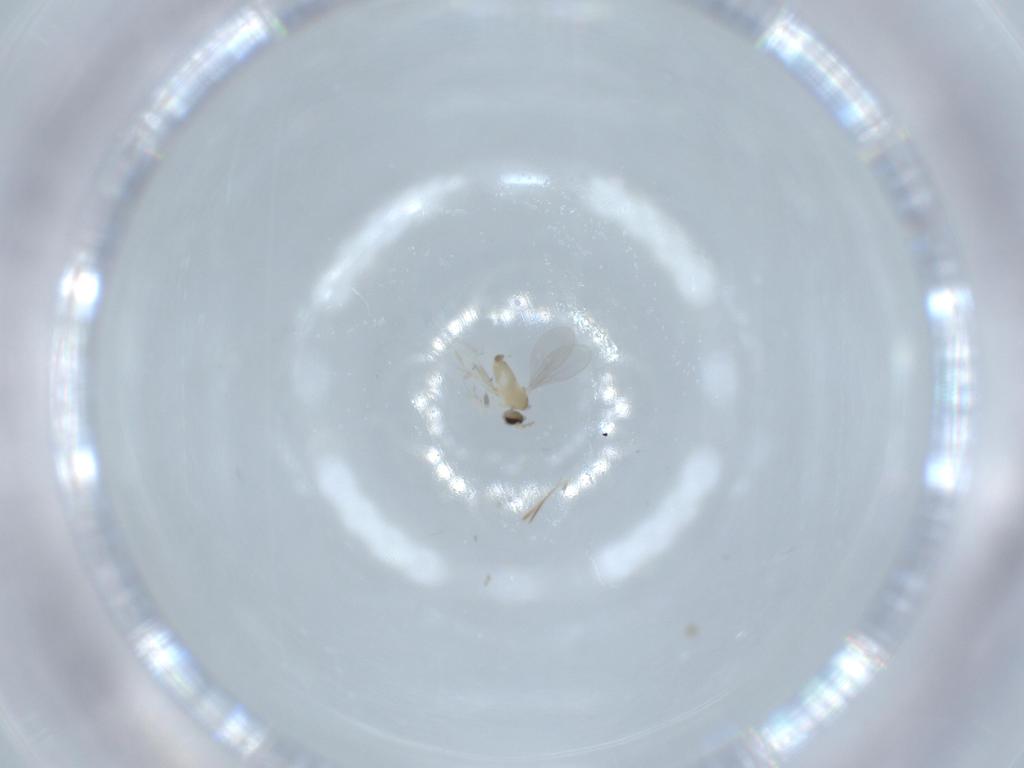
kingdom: Animalia
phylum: Arthropoda
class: Insecta
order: Diptera
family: Cecidomyiidae
